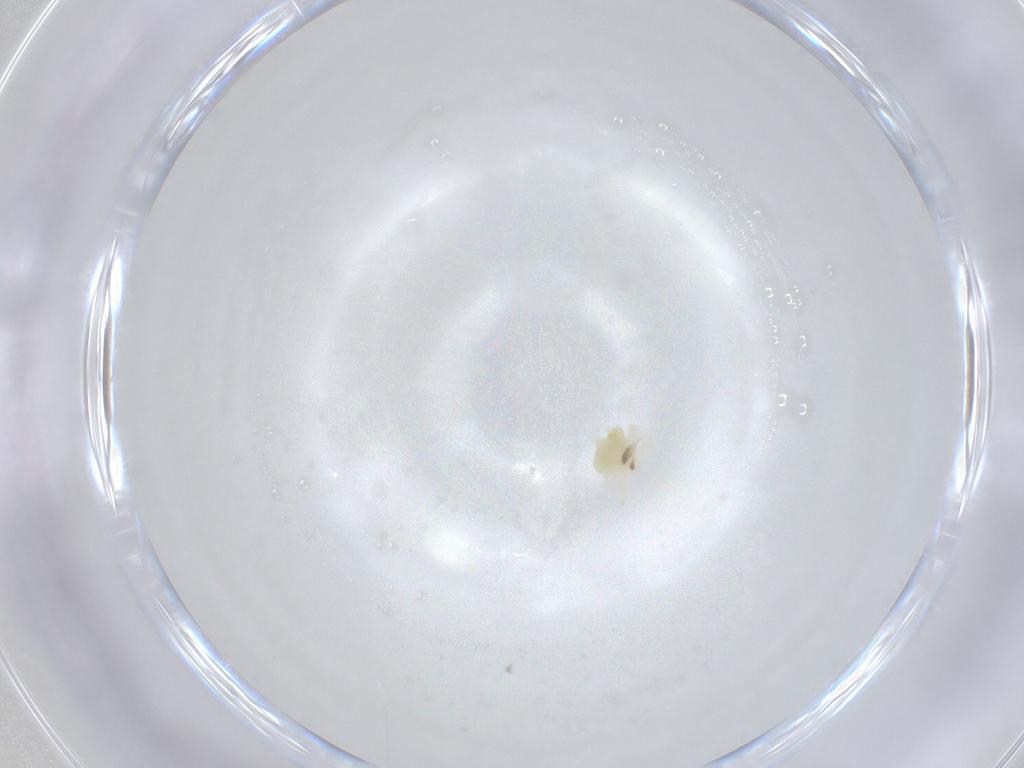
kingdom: Animalia
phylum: Arthropoda
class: Arachnida
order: Trombidiformes
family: Anystidae
